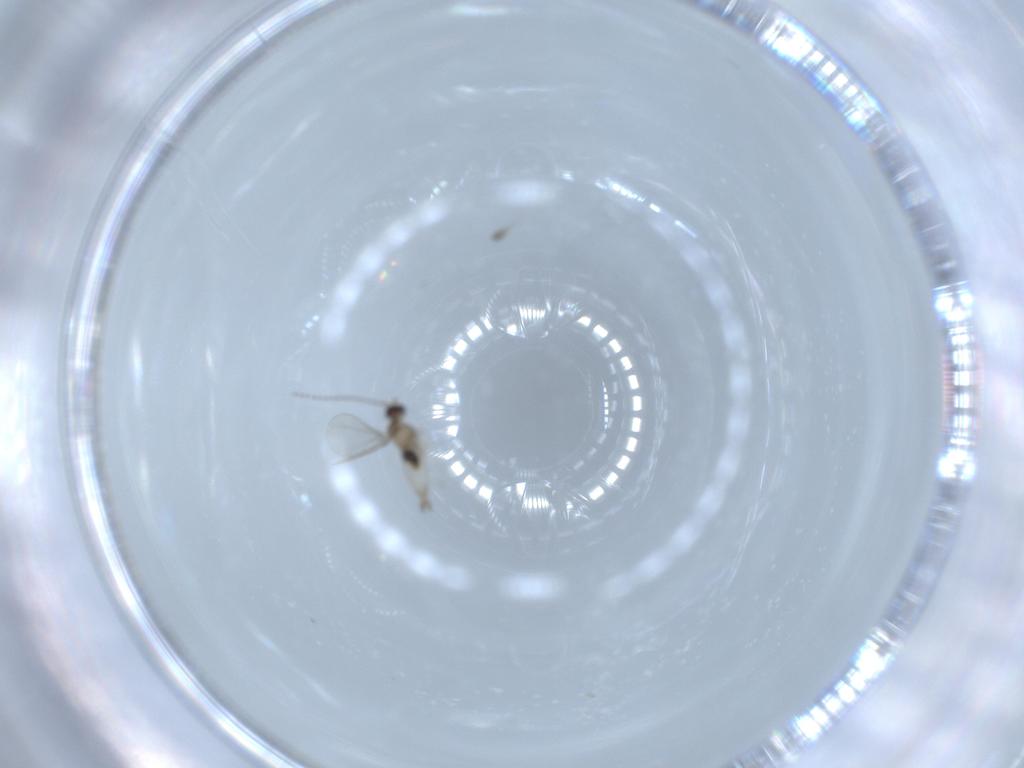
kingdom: Animalia
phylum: Arthropoda
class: Insecta
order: Diptera
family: Cecidomyiidae
